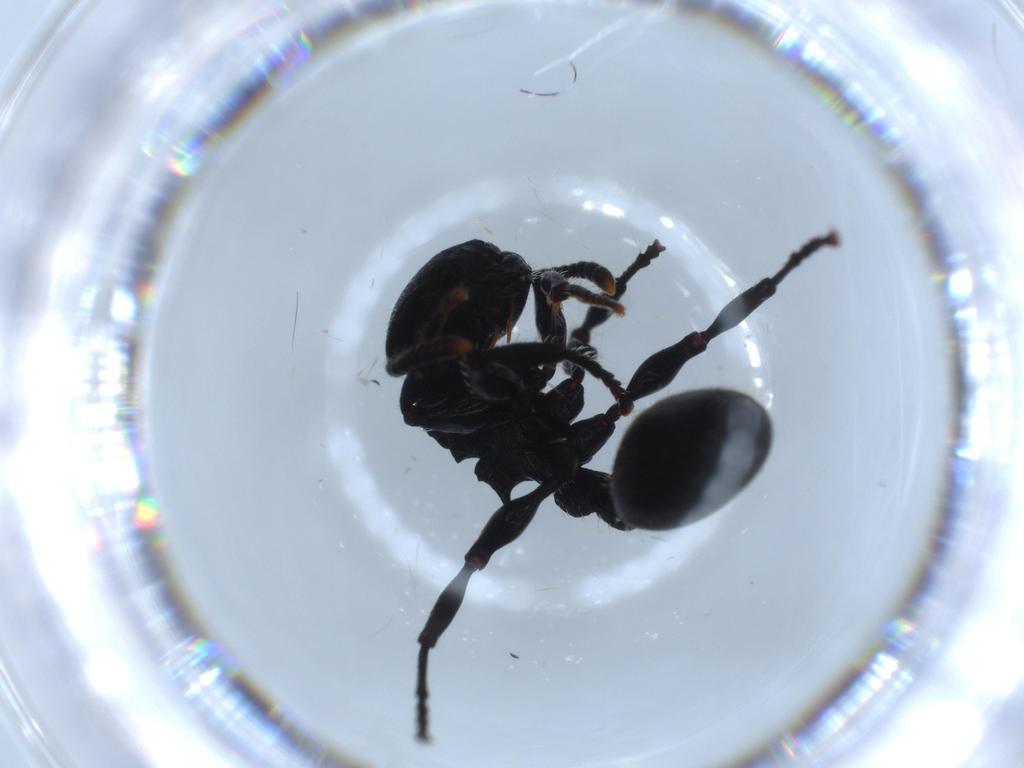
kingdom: Animalia
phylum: Arthropoda
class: Insecta
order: Hymenoptera
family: Formicidae
